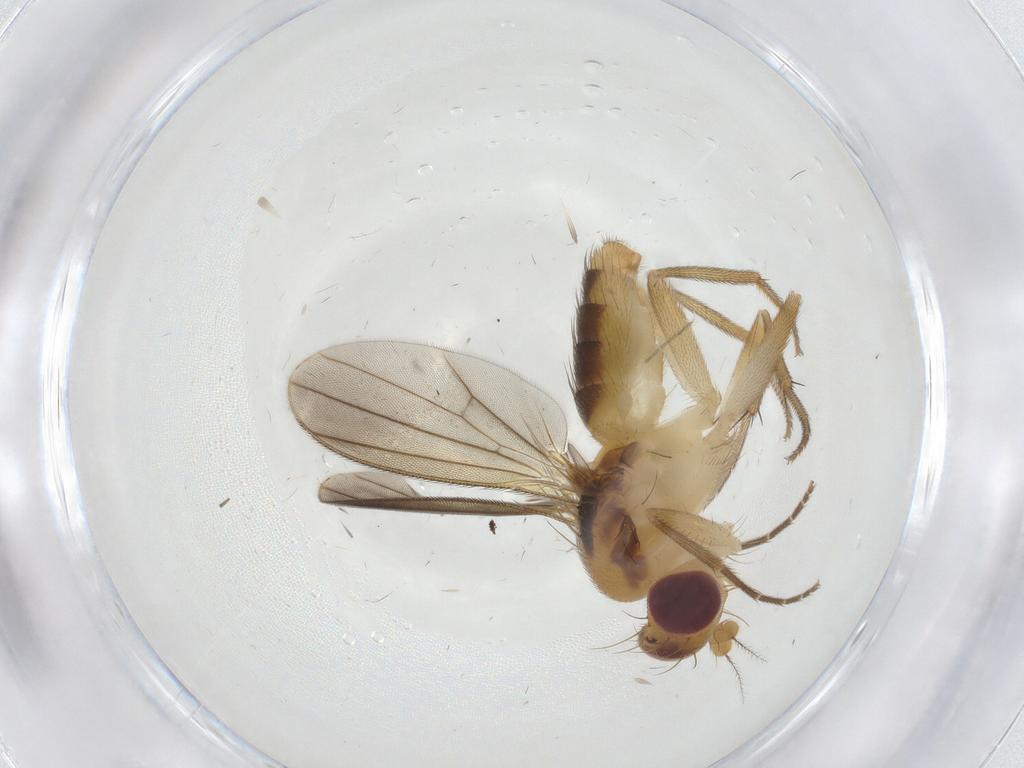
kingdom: Animalia
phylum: Arthropoda
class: Insecta
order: Diptera
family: Clusiidae
